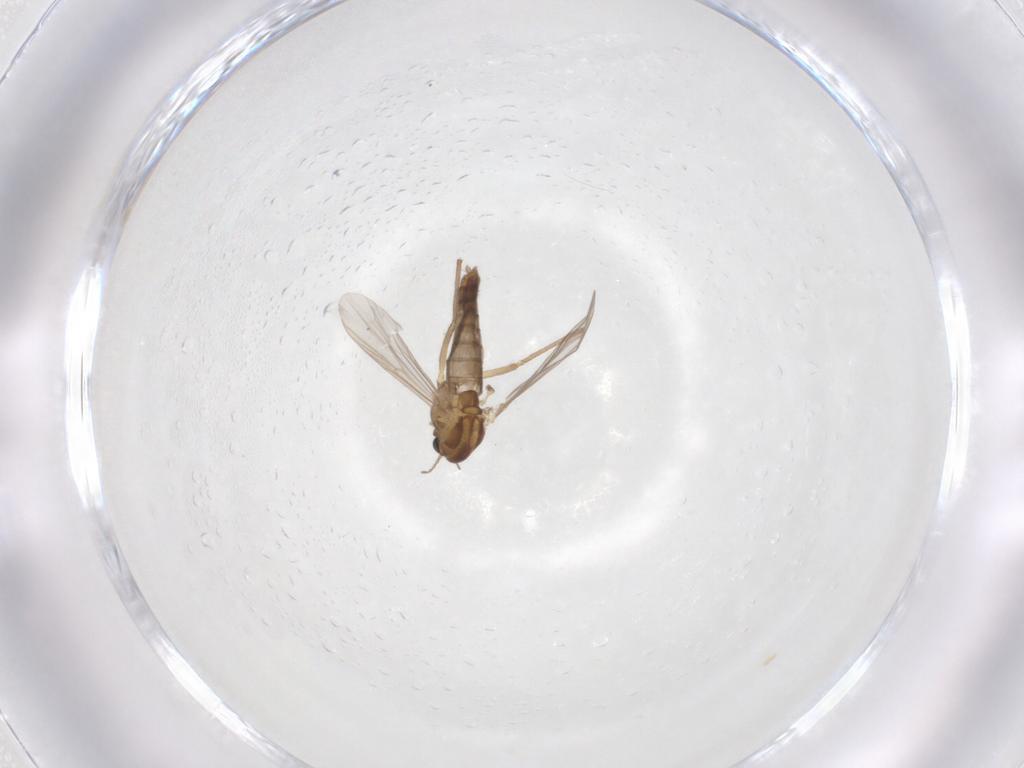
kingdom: Animalia
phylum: Arthropoda
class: Insecta
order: Diptera
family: Chironomidae
